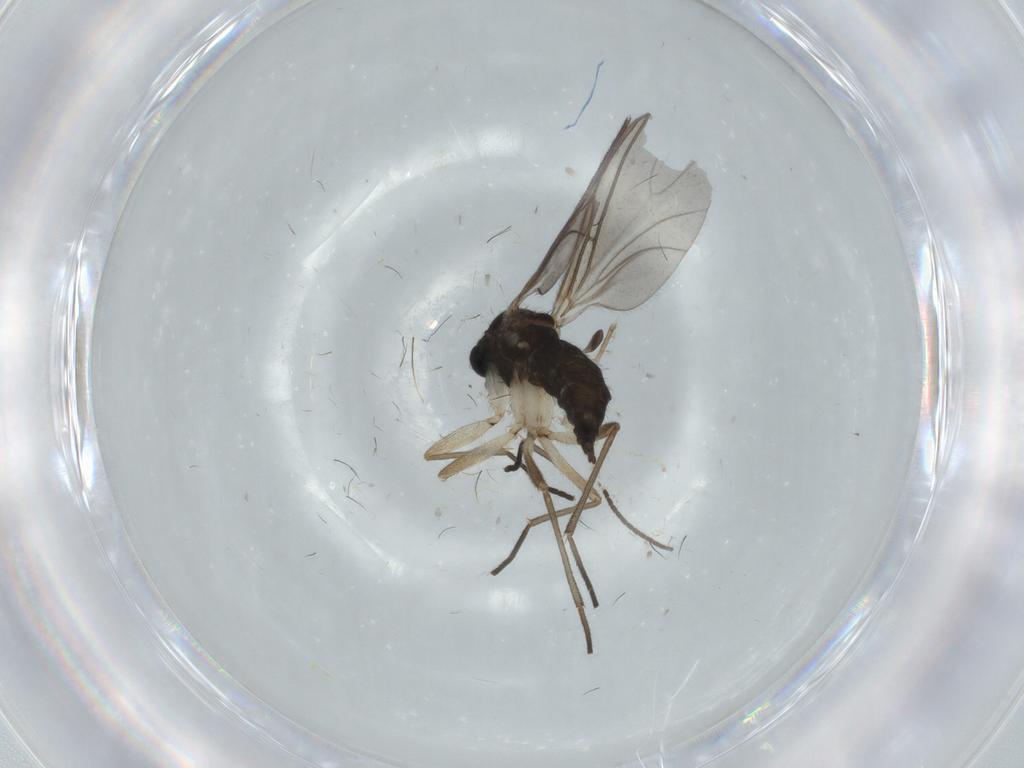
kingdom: Animalia
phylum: Arthropoda
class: Insecta
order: Diptera
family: Cecidomyiidae
